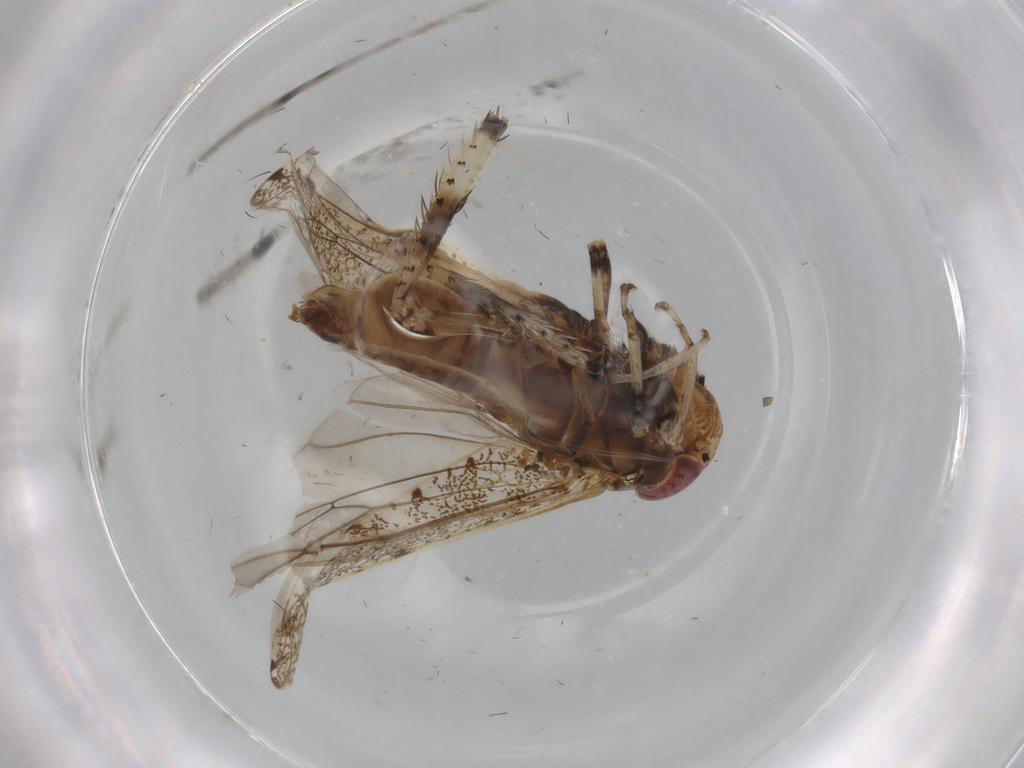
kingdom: Animalia
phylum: Arthropoda
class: Insecta
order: Hemiptera
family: Cicadellidae
